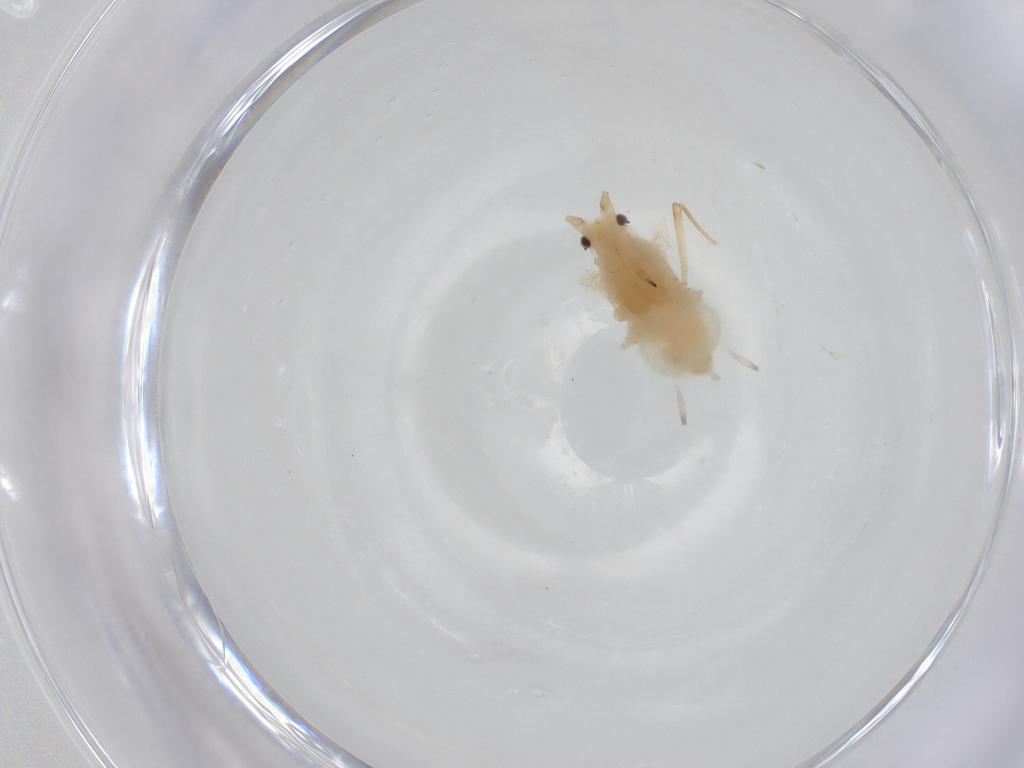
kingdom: Animalia
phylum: Arthropoda
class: Insecta
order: Hemiptera
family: Aphididae
